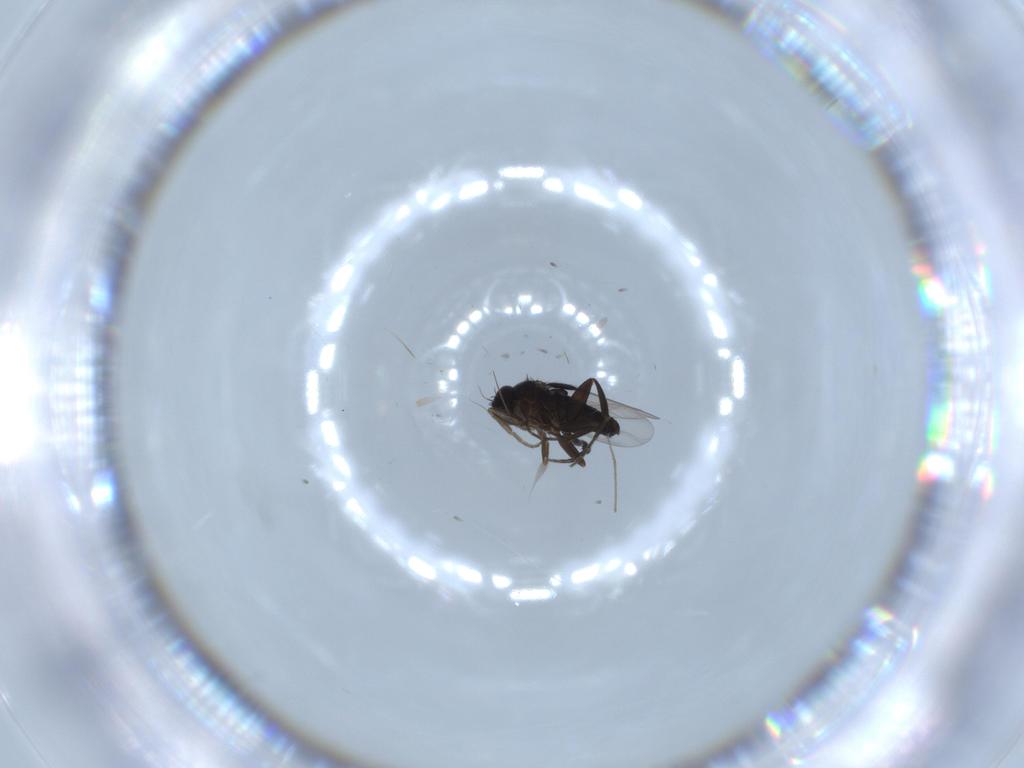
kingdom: Animalia
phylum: Arthropoda
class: Insecta
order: Diptera
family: Phoridae
